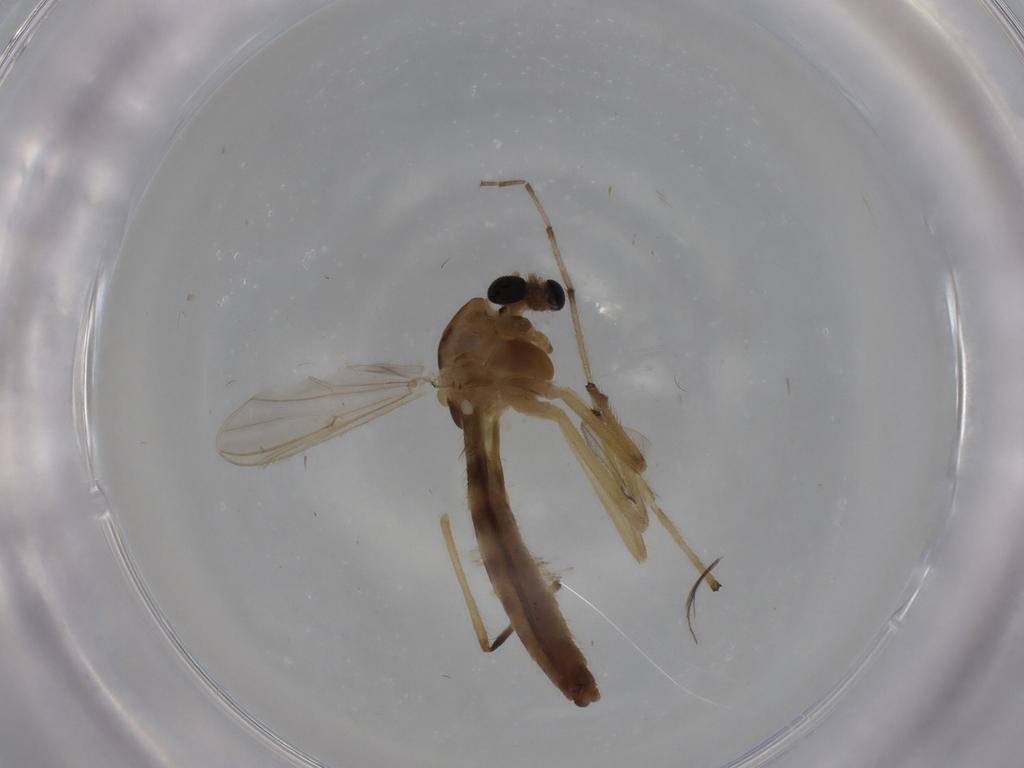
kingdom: Animalia
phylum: Arthropoda
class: Insecta
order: Diptera
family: Chironomidae
